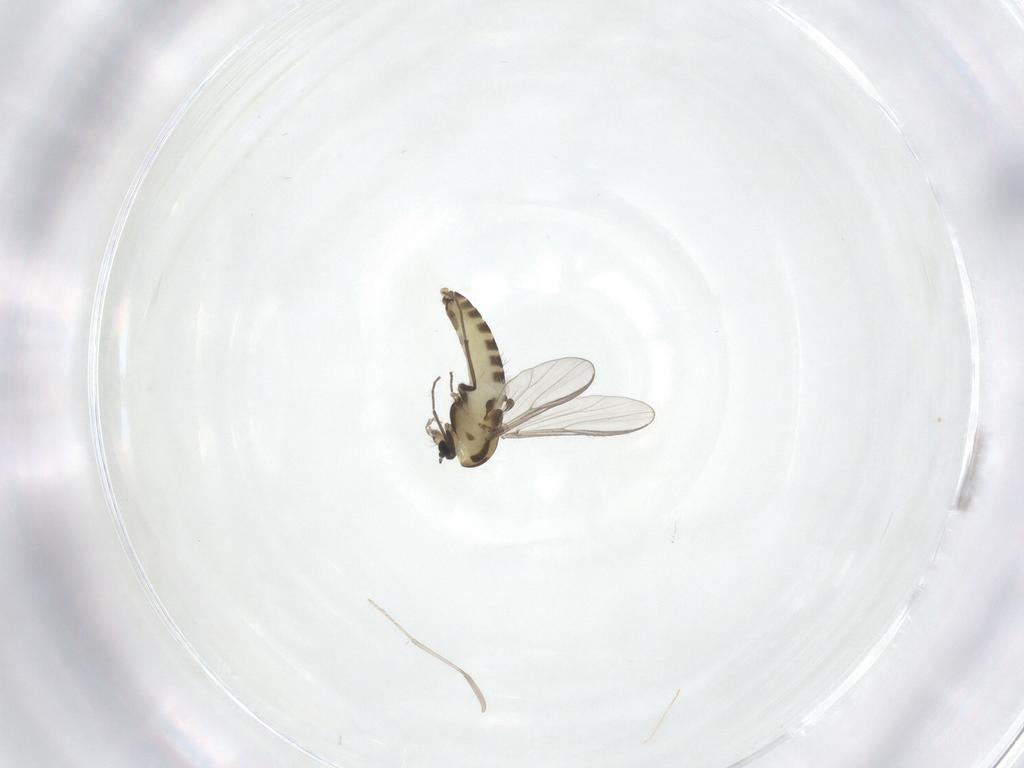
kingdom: Animalia
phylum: Arthropoda
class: Insecta
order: Diptera
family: Chironomidae
